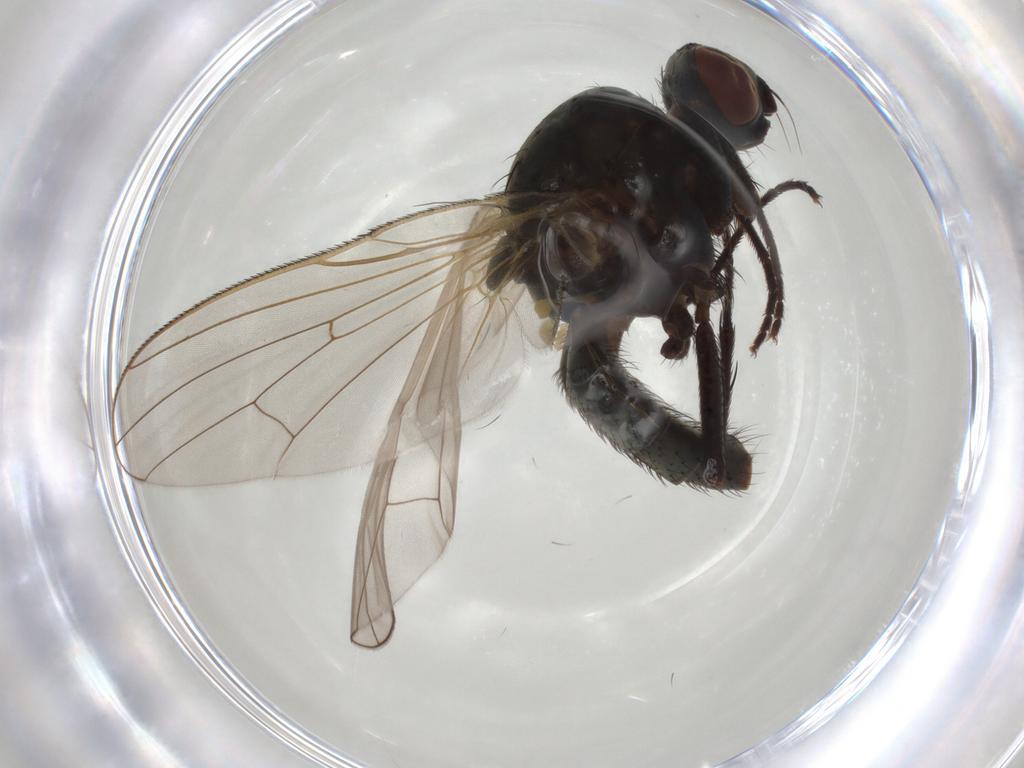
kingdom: Animalia
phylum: Arthropoda
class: Insecta
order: Diptera
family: Anthomyiidae
